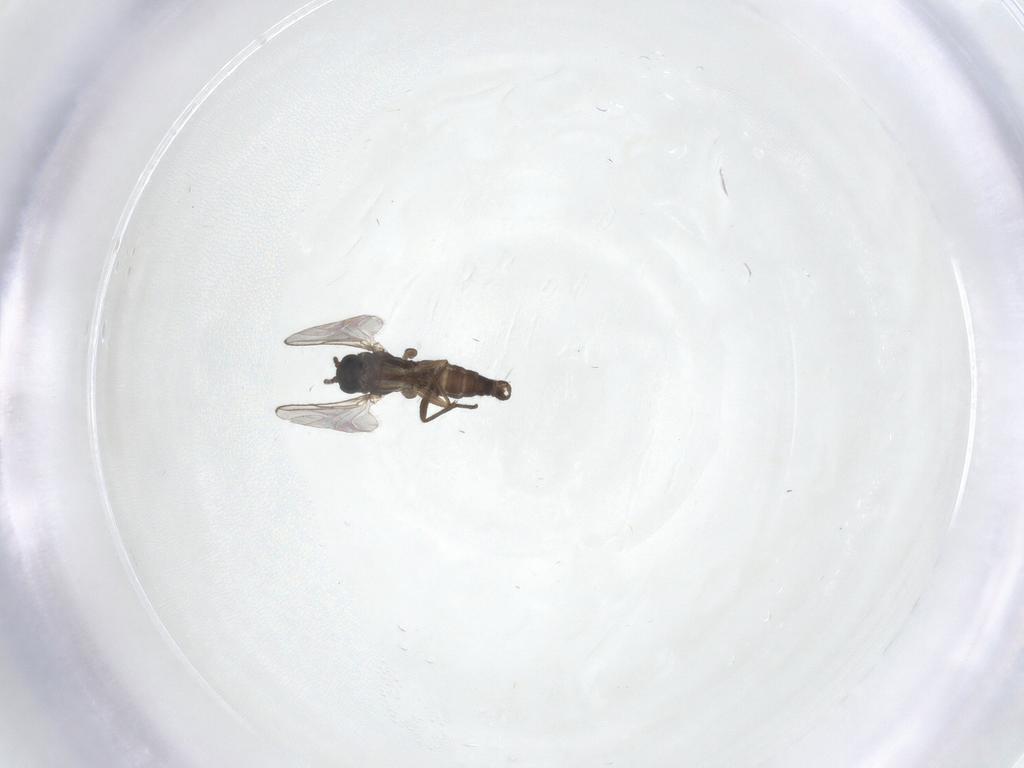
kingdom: Animalia
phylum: Arthropoda
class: Insecta
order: Diptera
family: Sciaridae
